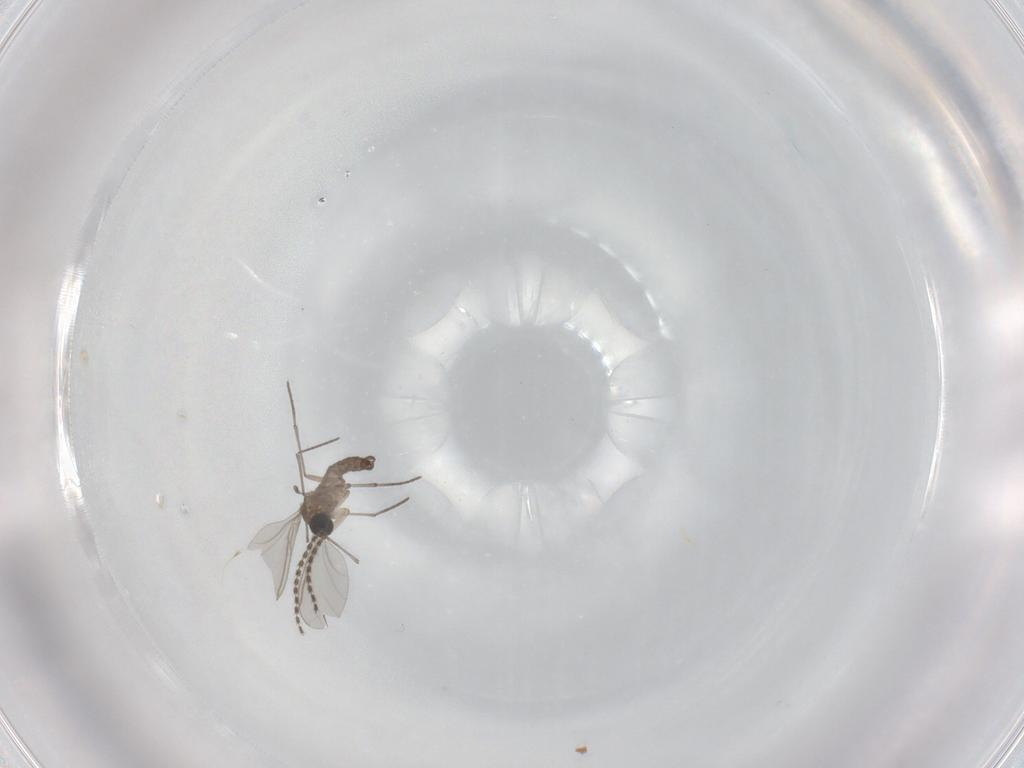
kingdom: Animalia
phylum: Arthropoda
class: Insecta
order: Diptera
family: Sciaridae
